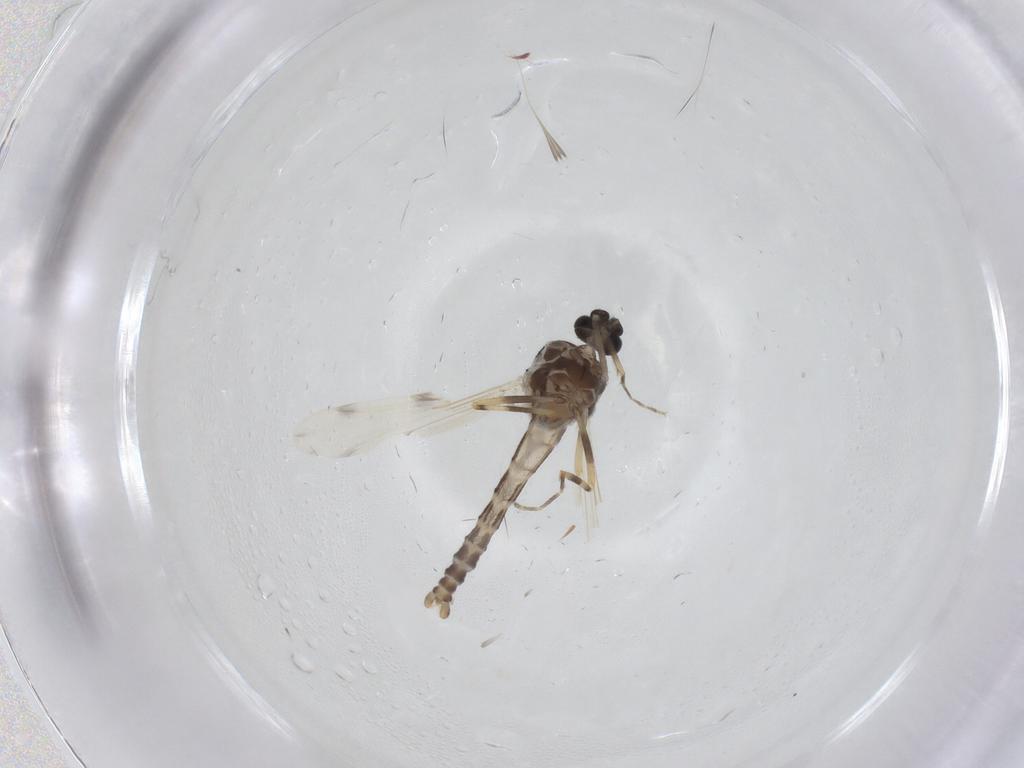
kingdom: Animalia
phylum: Arthropoda
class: Insecta
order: Diptera
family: Ceratopogonidae
